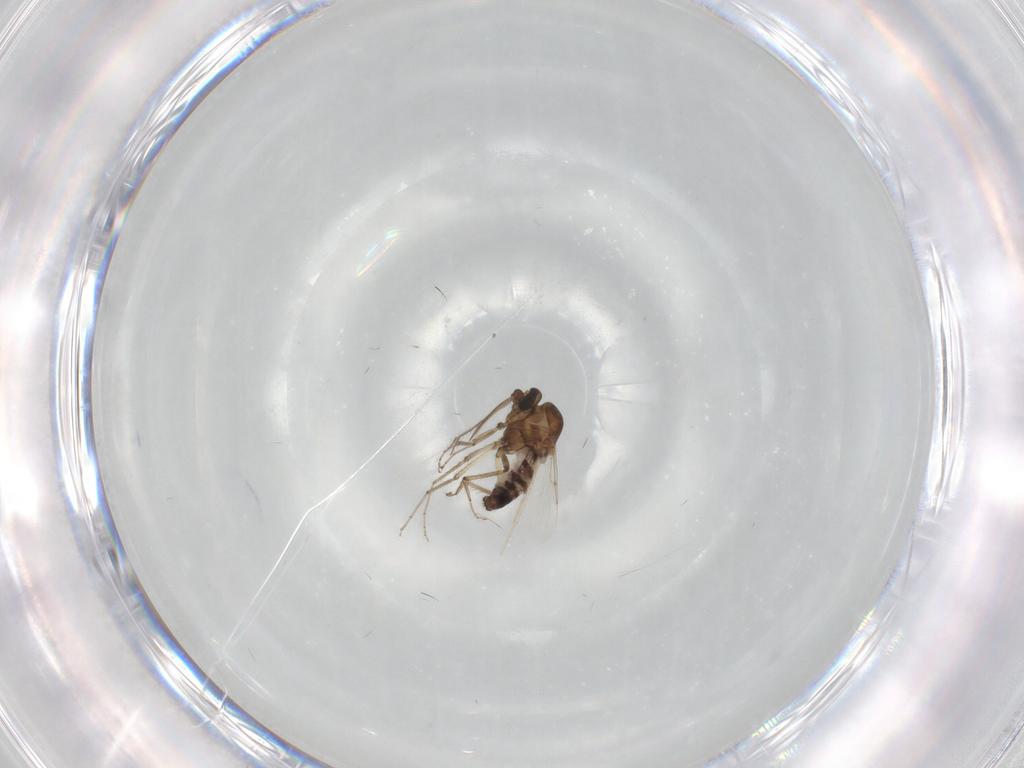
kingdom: Animalia
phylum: Arthropoda
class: Insecta
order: Diptera
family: Ceratopogonidae
